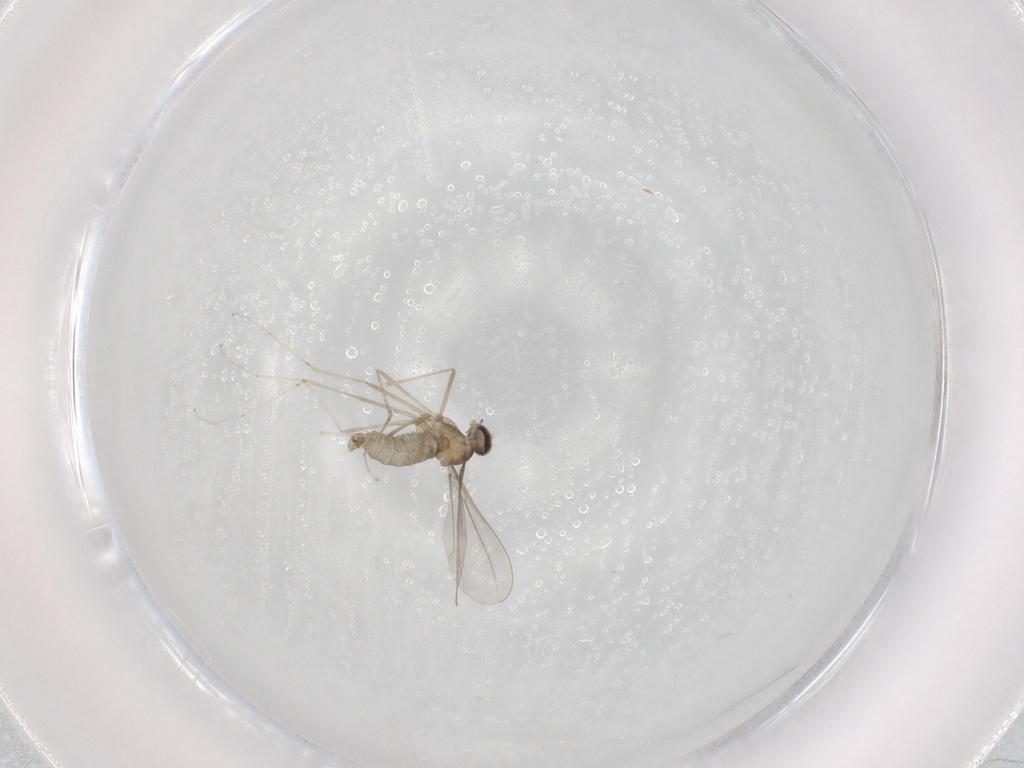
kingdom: Animalia
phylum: Arthropoda
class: Insecta
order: Diptera
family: Cecidomyiidae
